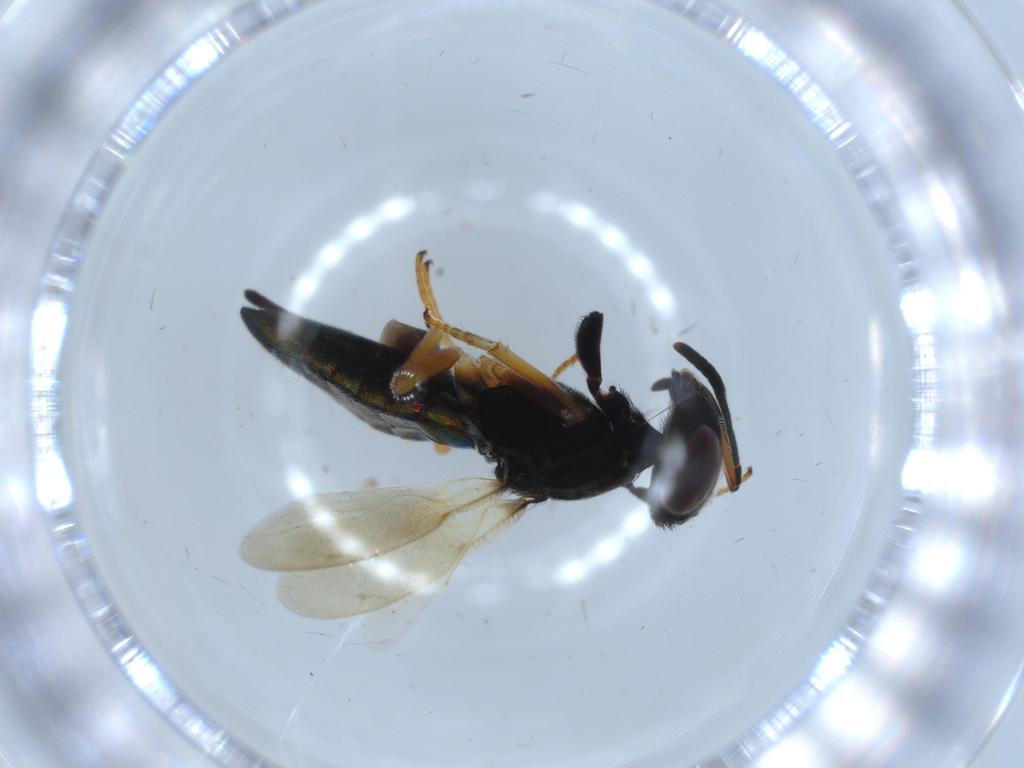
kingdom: Animalia
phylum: Arthropoda
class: Insecta
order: Hymenoptera
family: Eupelmidae
